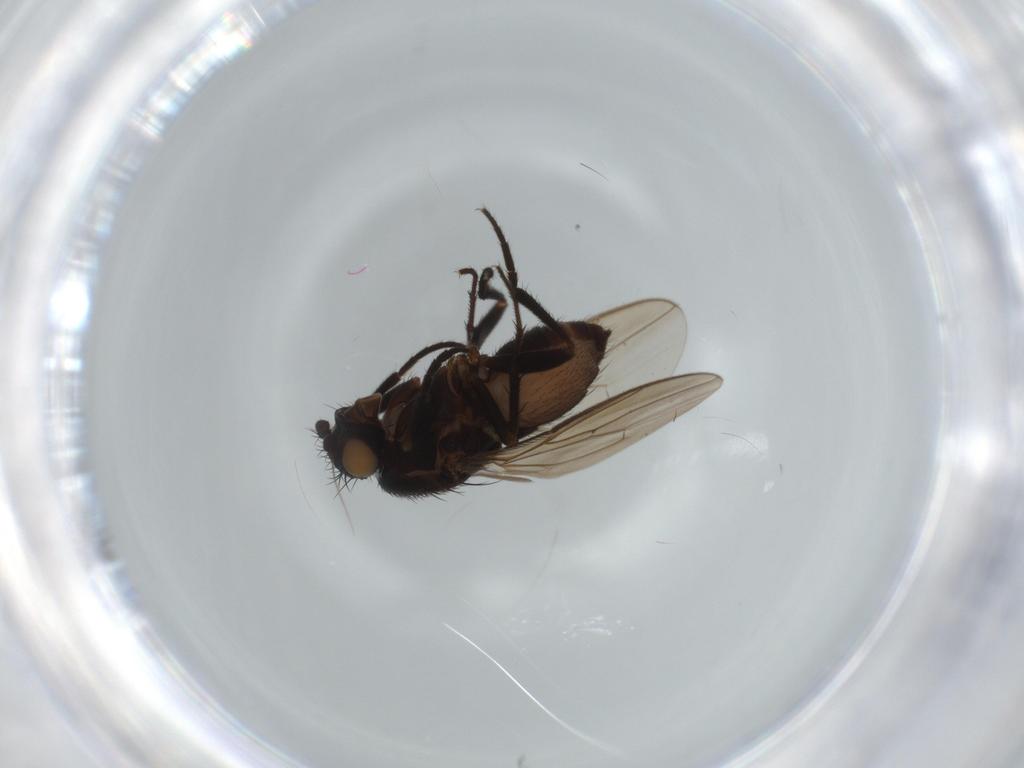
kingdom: Animalia
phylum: Arthropoda
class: Insecta
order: Diptera
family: Sphaeroceridae
